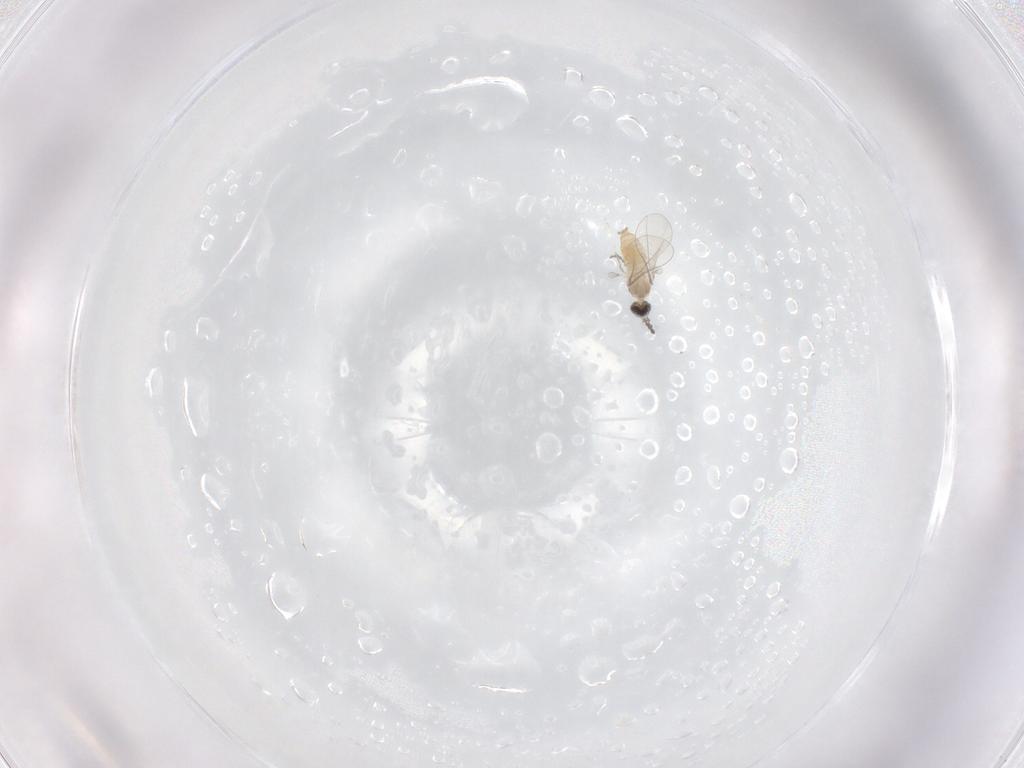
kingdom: Animalia
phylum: Arthropoda
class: Insecta
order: Diptera
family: Cecidomyiidae
